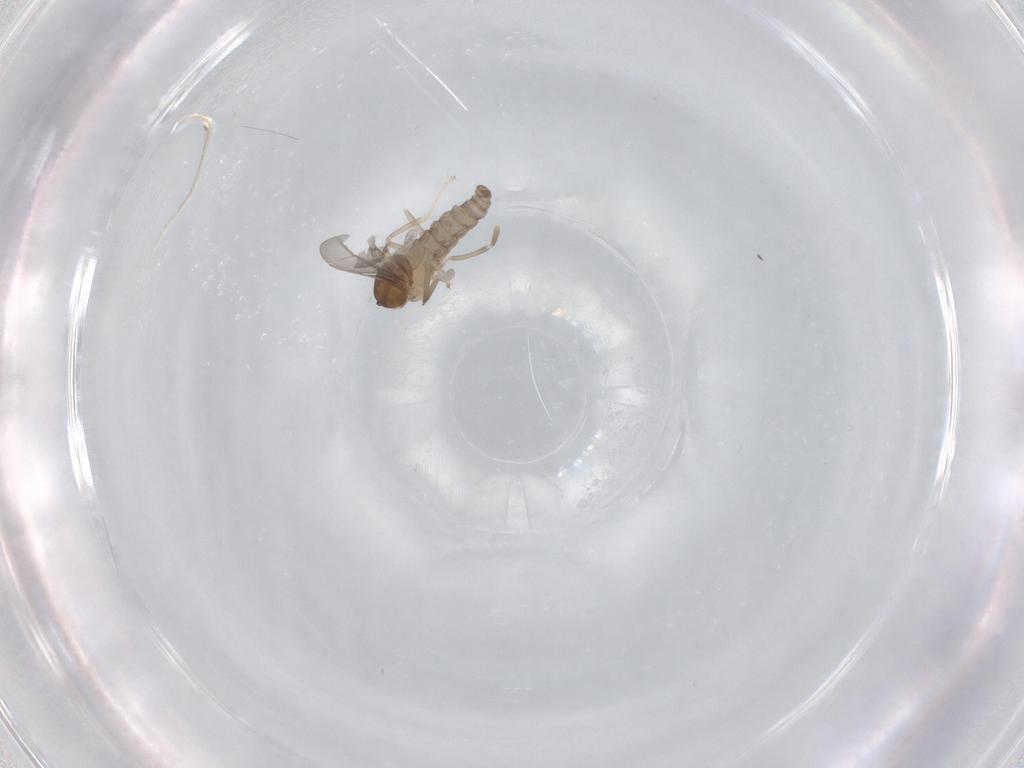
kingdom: Animalia
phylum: Arthropoda
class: Insecta
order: Diptera
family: Cecidomyiidae
